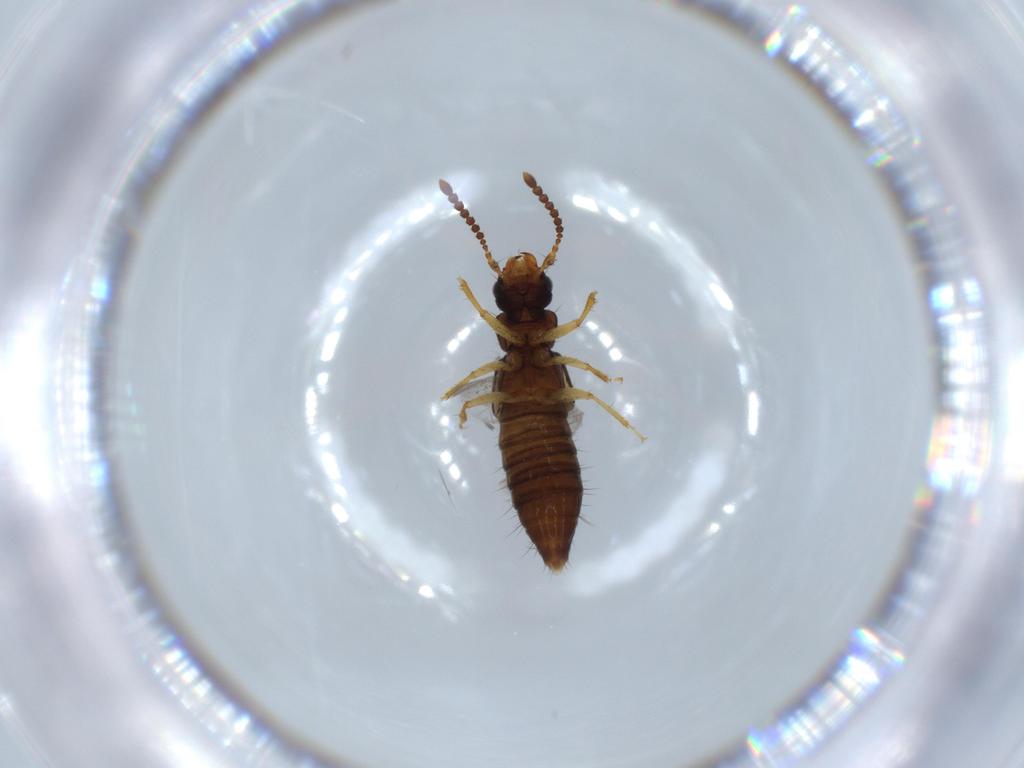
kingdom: Animalia
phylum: Arthropoda
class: Insecta
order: Coleoptera
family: Staphylinidae
